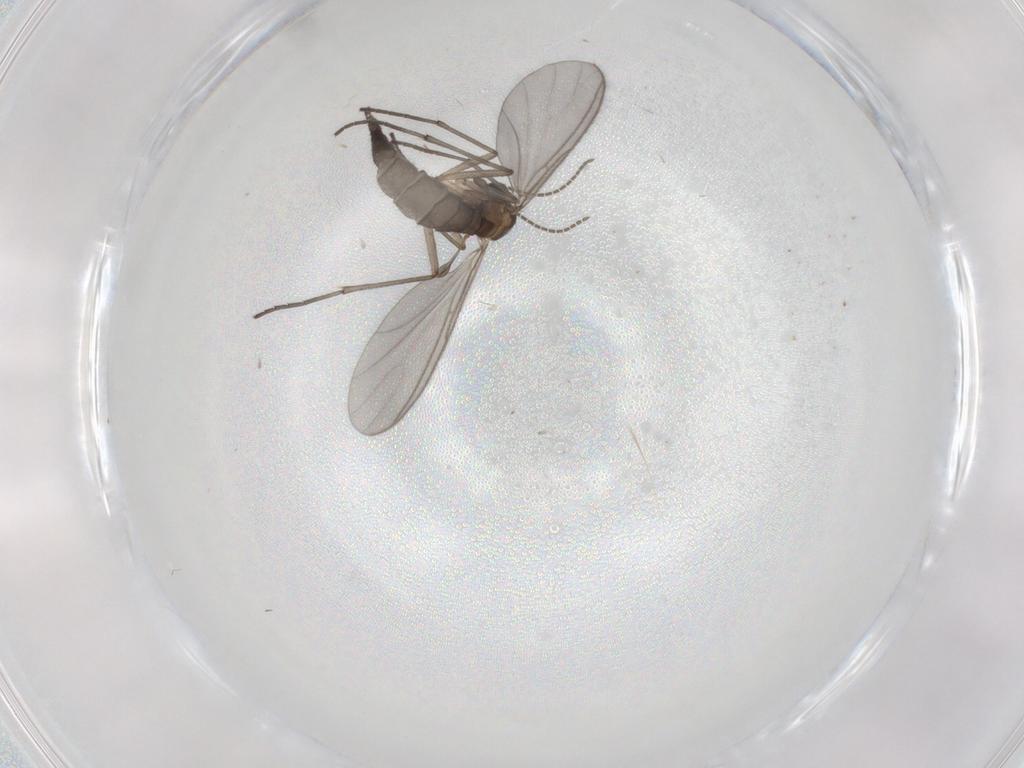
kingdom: Animalia
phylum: Arthropoda
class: Insecta
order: Diptera
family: Sciaridae
